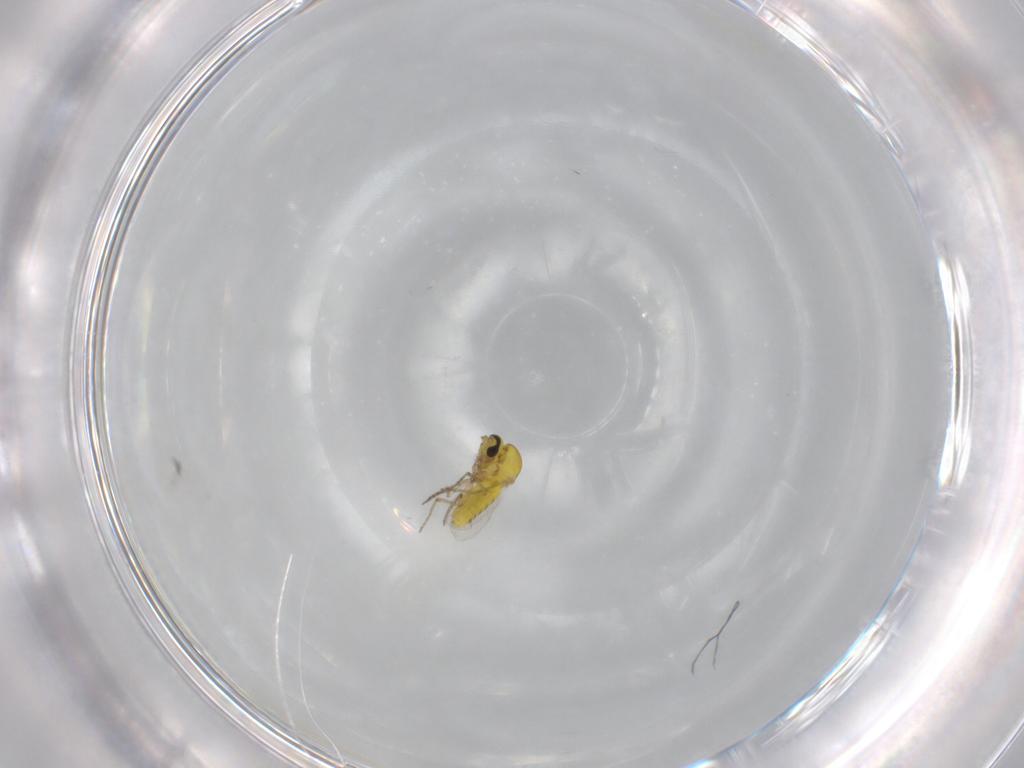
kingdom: Animalia
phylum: Arthropoda
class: Insecta
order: Diptera
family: Ceratopogonidae
